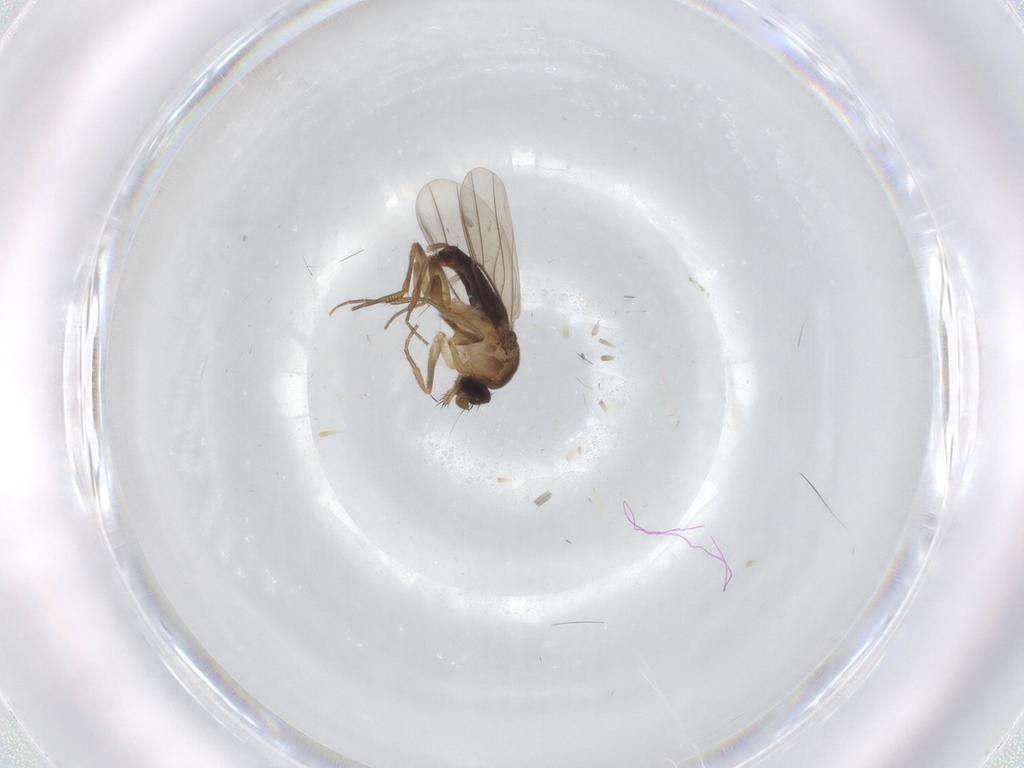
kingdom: Animalia
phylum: Arthropoda
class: Insecta
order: Diptera
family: Phoridae
